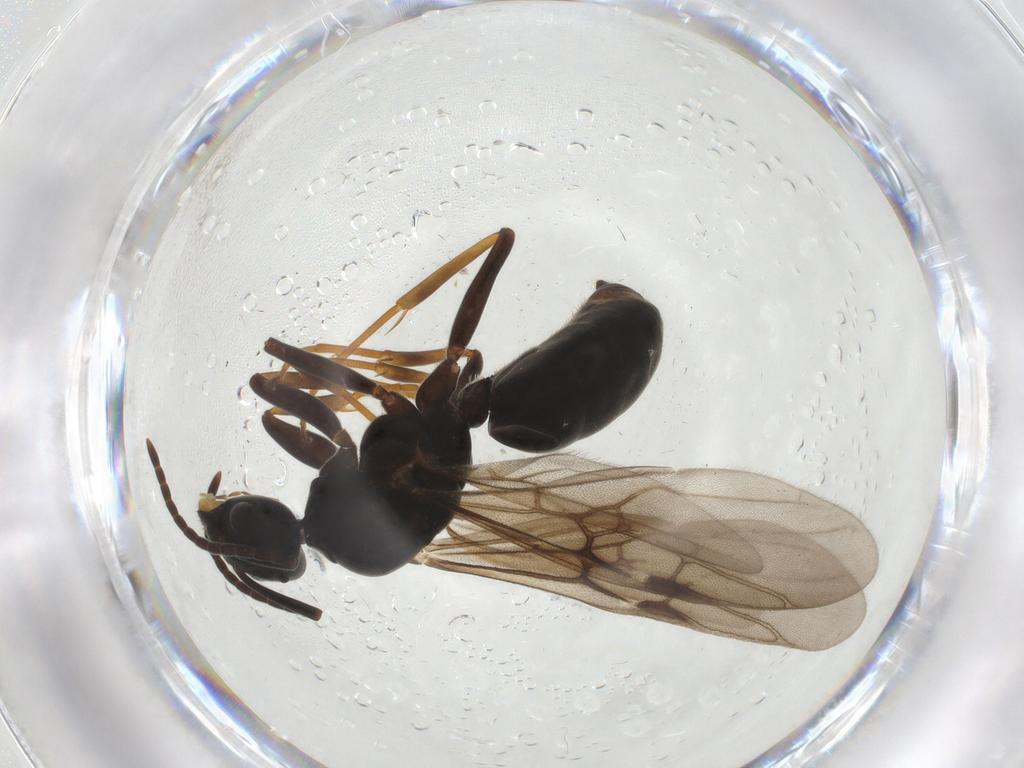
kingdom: Animalia
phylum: Arthropoda
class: Insecta
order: Hymenoptera
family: Formicidae
